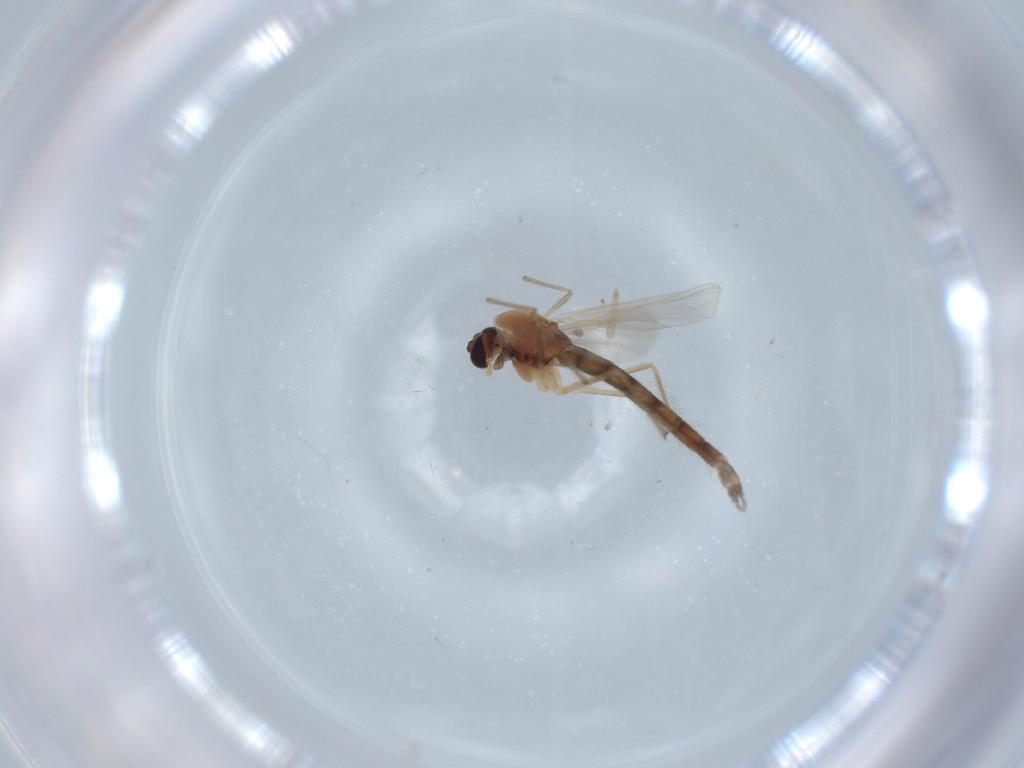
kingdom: Animalia
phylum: Arthropoda
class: Insecta
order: Diptera
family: Chironomidae
